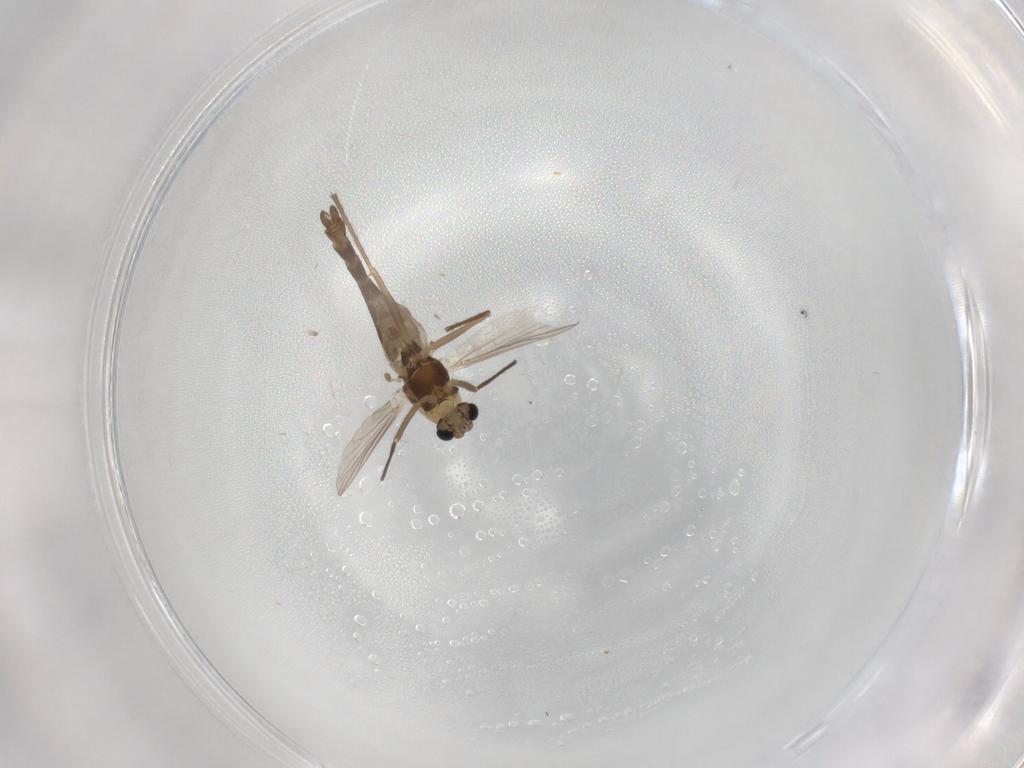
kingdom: Animalia
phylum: Arthropoda
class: Insecta
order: Diptera
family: Chironomidae
